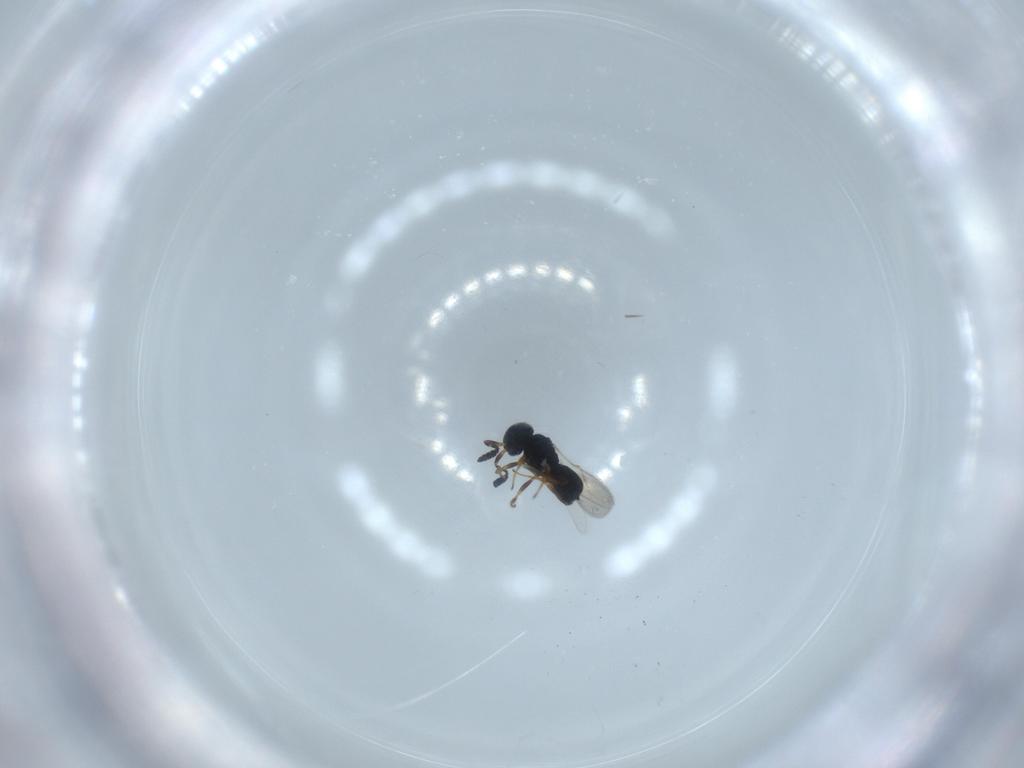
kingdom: Animalia
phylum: Arthropoda
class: Insecta
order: Hymenoptera
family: Scelionidae
